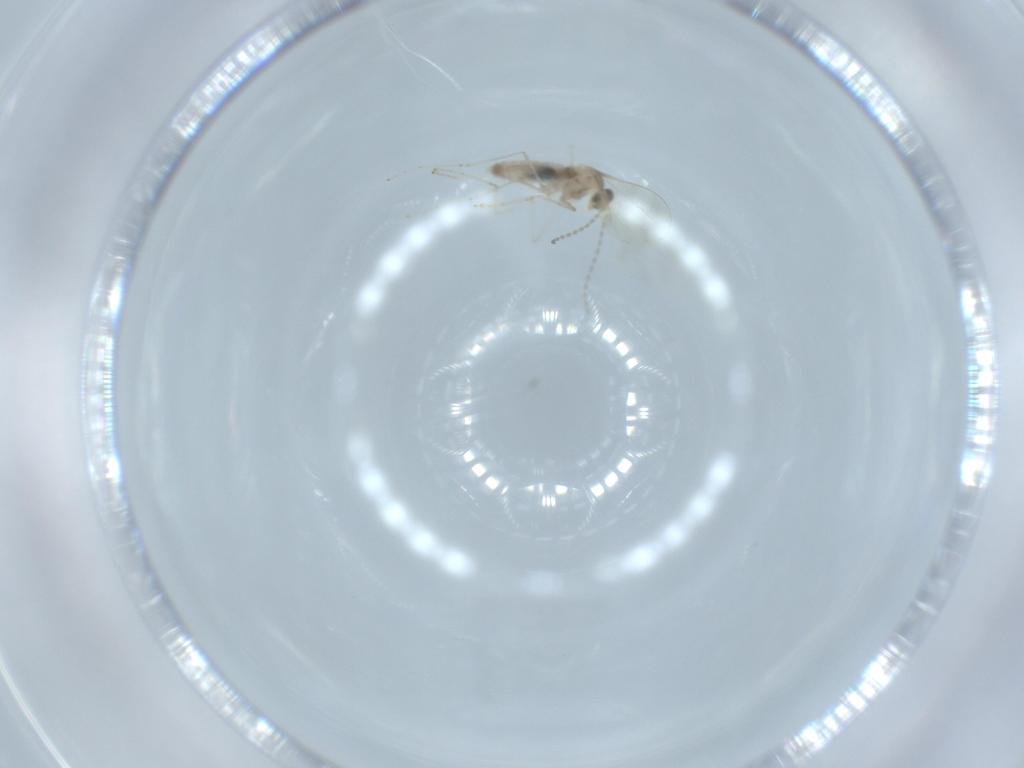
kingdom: Animalia
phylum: Arthropoda
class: Insecta
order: Diptera
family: Cecidomyiidae
